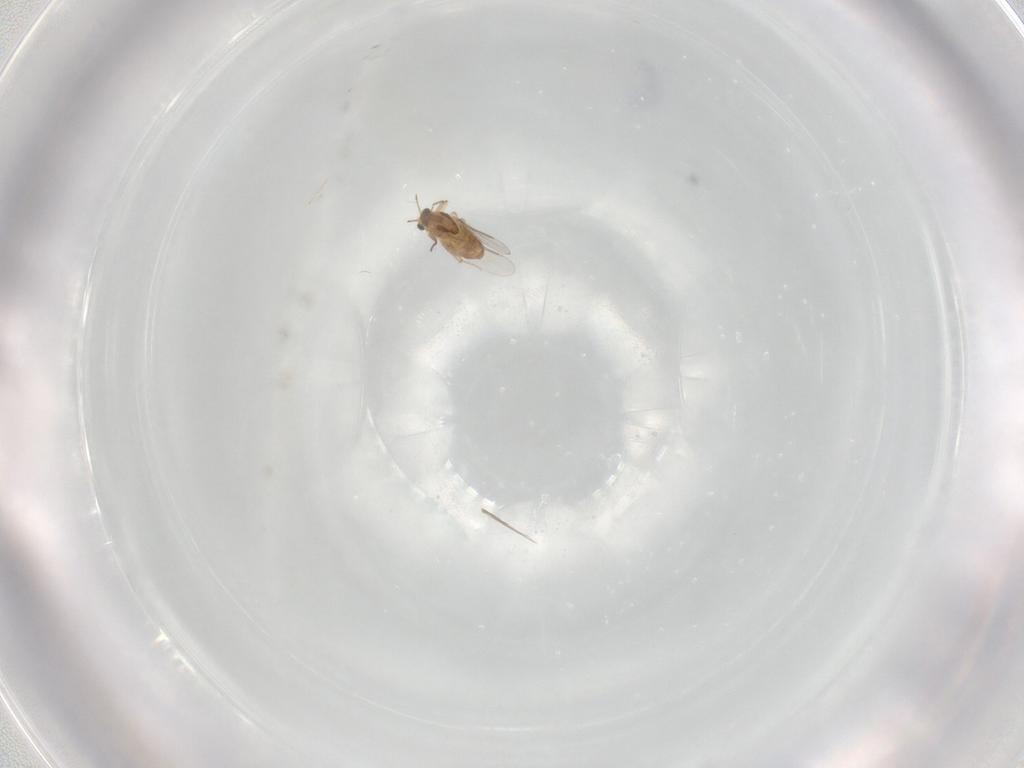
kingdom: Animalia
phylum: Arthropoda
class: Insecta
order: Diptera
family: Chironomidae
